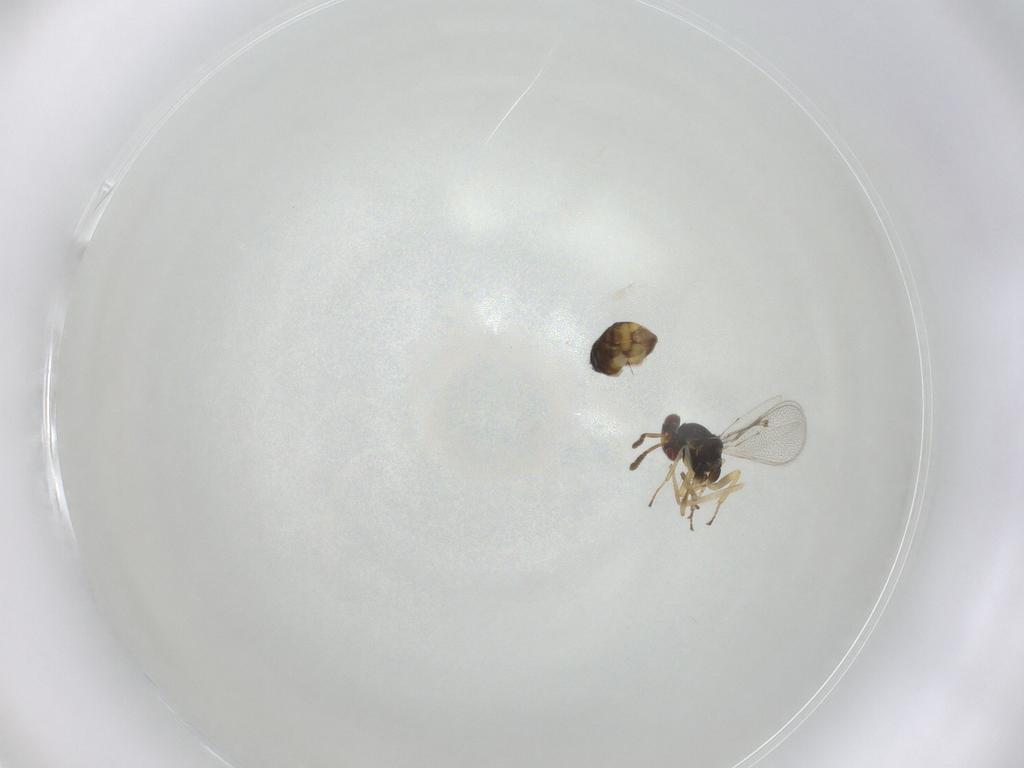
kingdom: Animalia
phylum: Arthropoda
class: Insecta
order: Hymenoptera
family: Eulophidae
